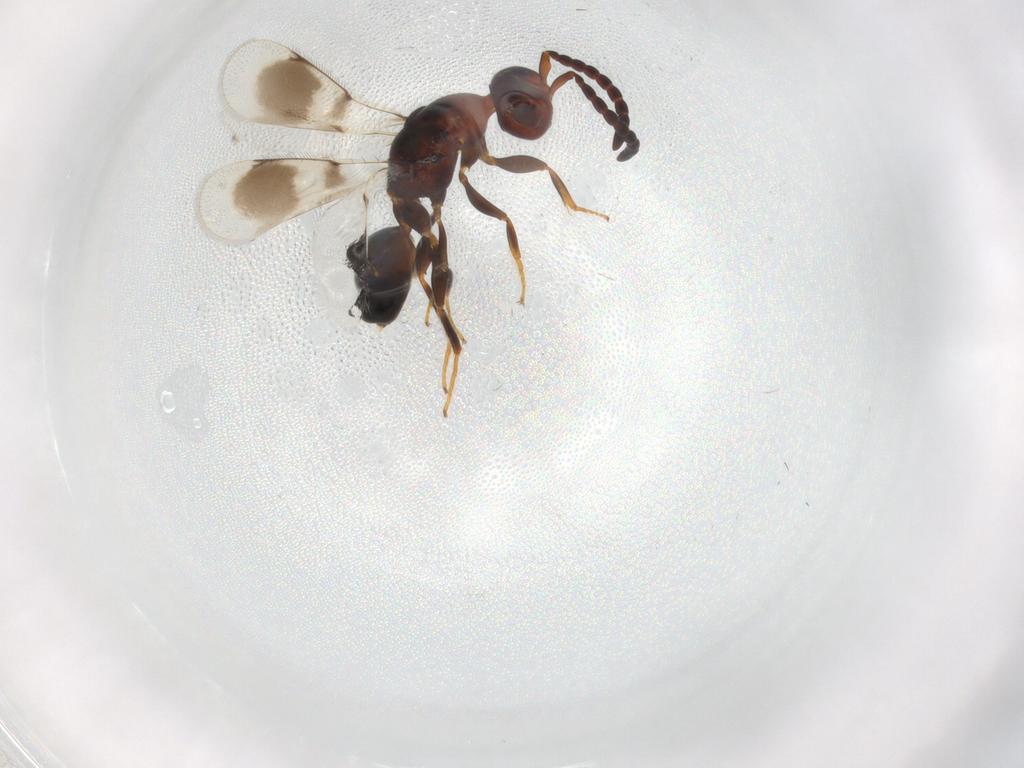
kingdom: Animalia
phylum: Arthropoda
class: Insecta
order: Hymenoptera
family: Cerocephalidae
